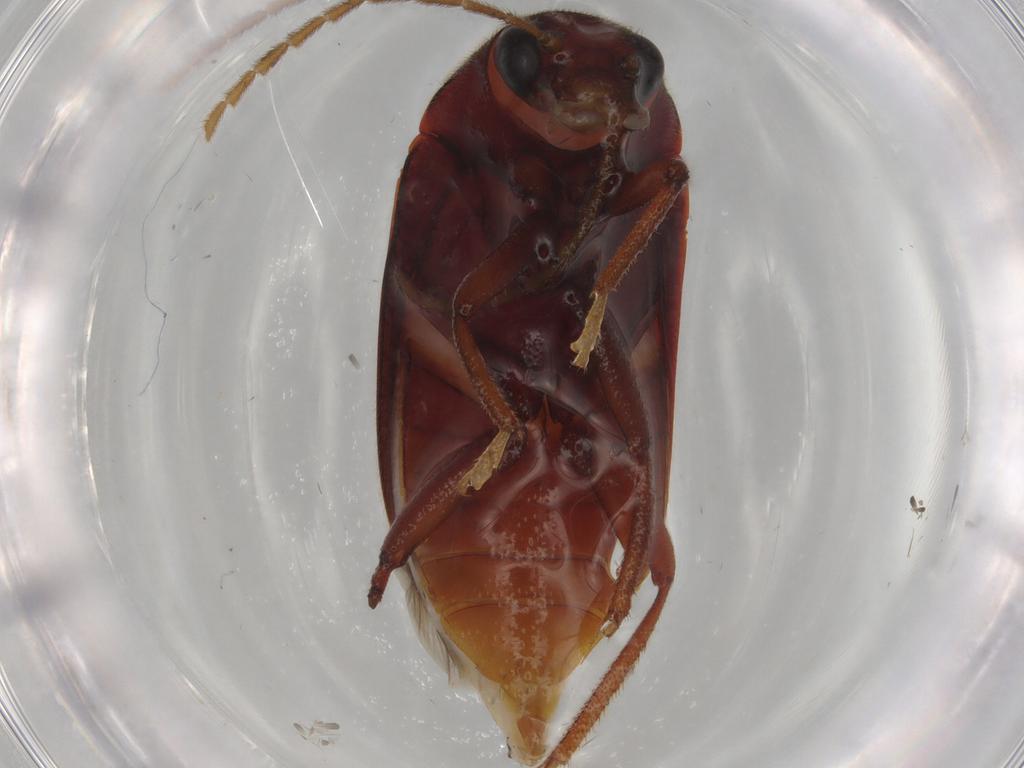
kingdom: Animalia
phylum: Arthropoda
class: Insecta
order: Coleoptera
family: Ptilodactylidae
